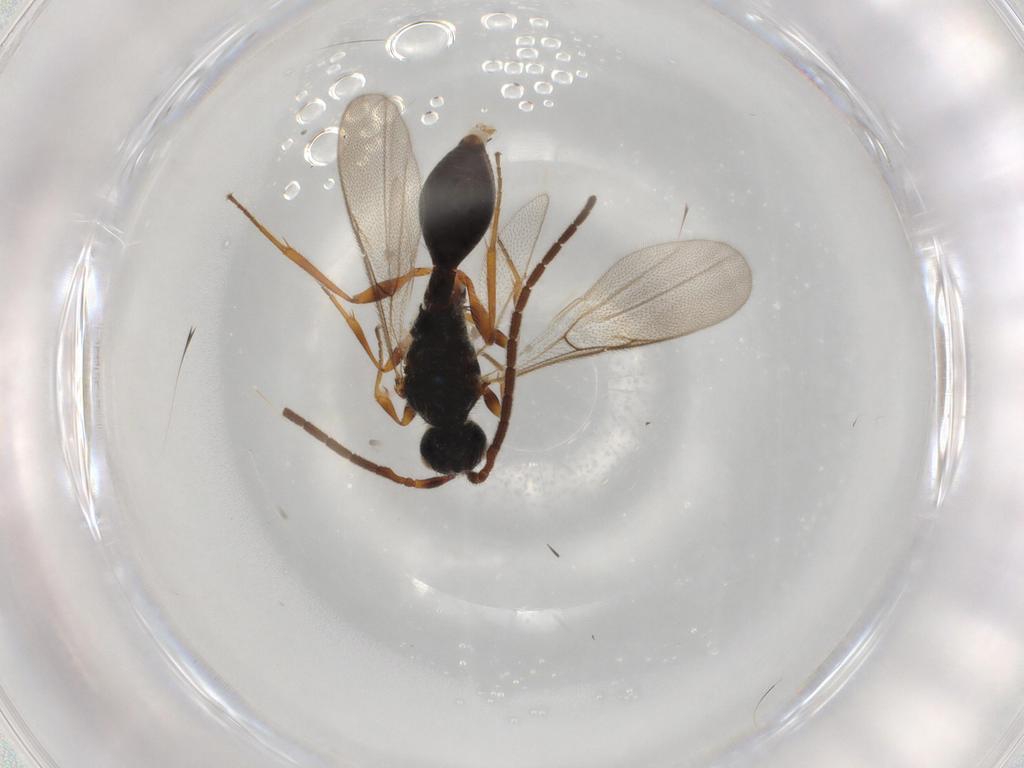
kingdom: Animalia
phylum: Arthropoda
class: Insecta
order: Hymenoptera
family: Diapriidae
